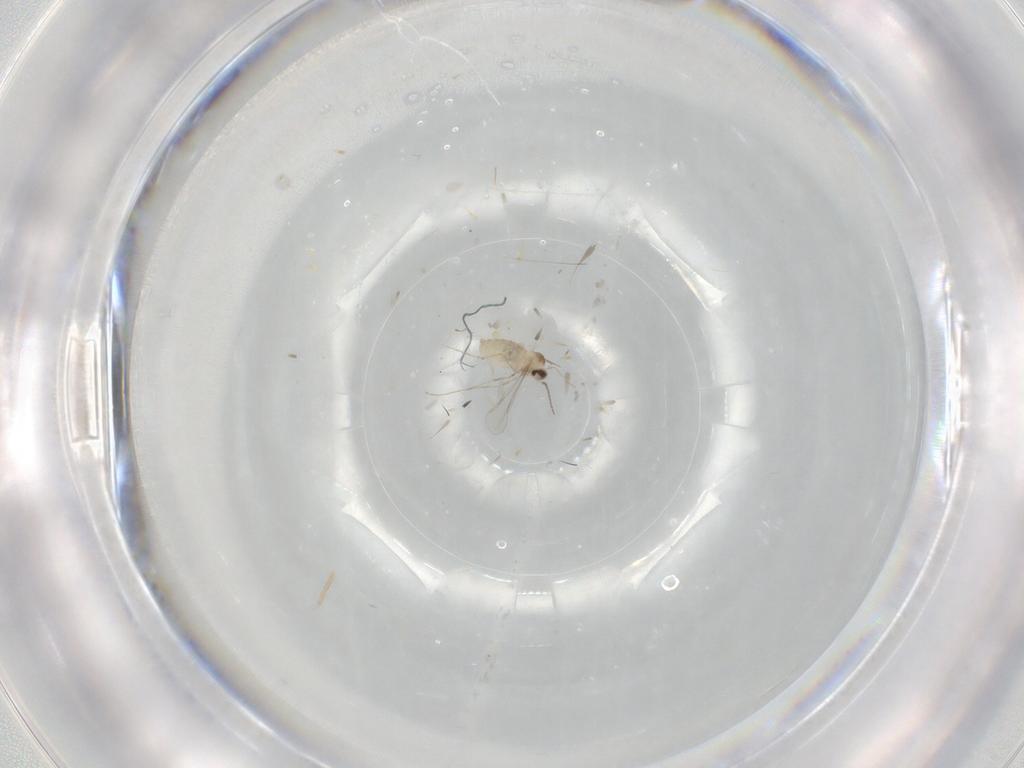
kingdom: Animalia
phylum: Arthropoda
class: Insecta
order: Diptera
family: Cecidomyiidae
